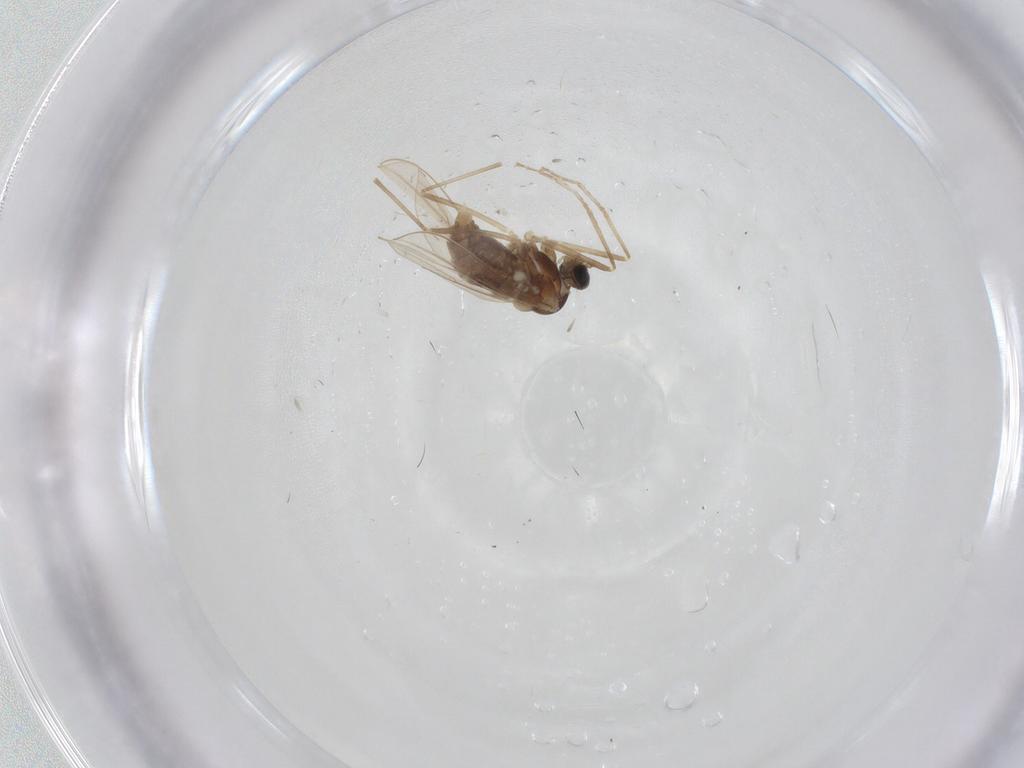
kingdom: Animalia
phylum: Arthropoda
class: Insecta
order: Diptera
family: Cecidomyiidae
